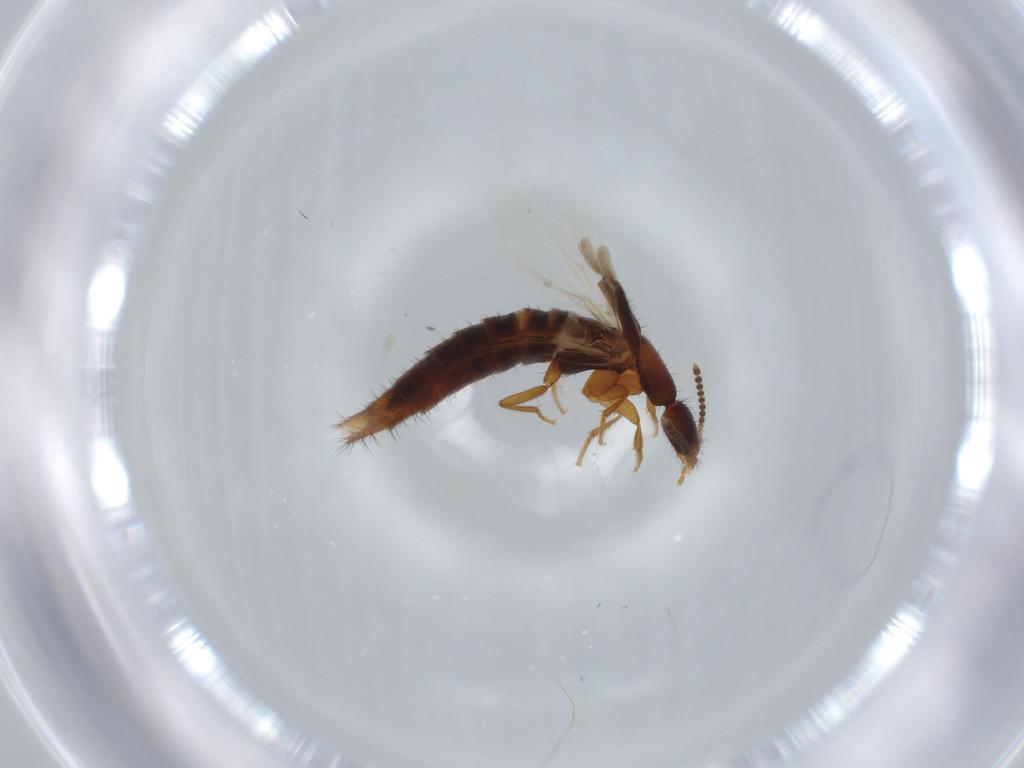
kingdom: Animalia
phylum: Arthropoda
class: Insecta
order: Coleoptera
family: Staphylinidae
